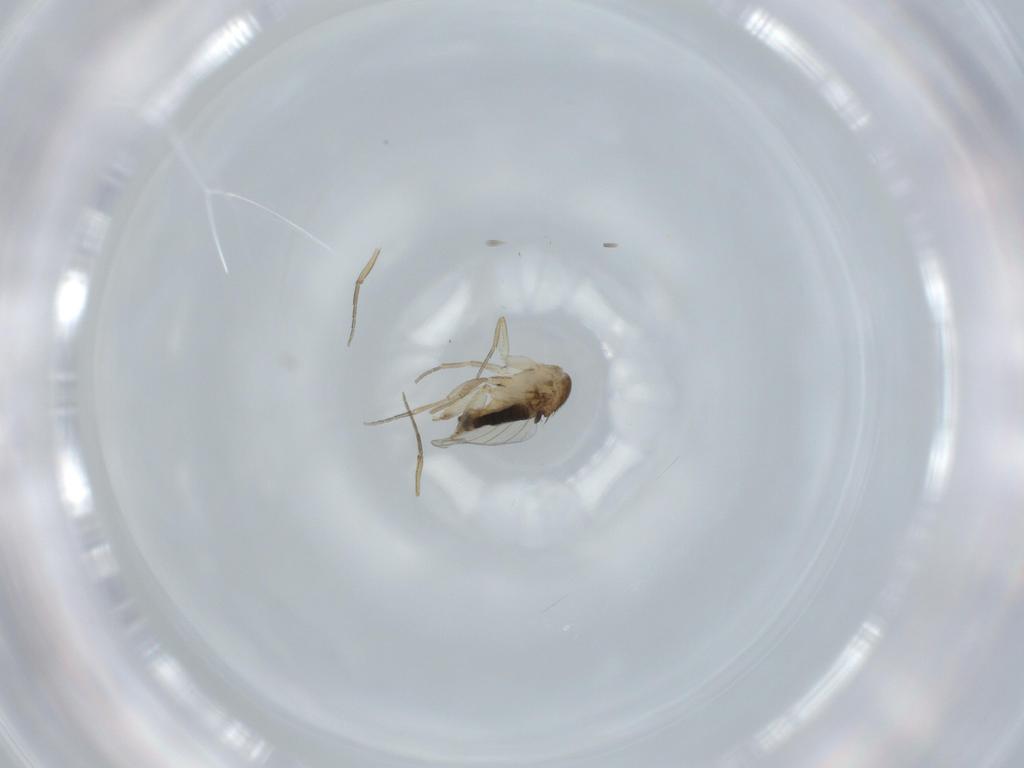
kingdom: Animalia
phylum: Arthropoda
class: Insecta
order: Diptera
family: Phoridae
